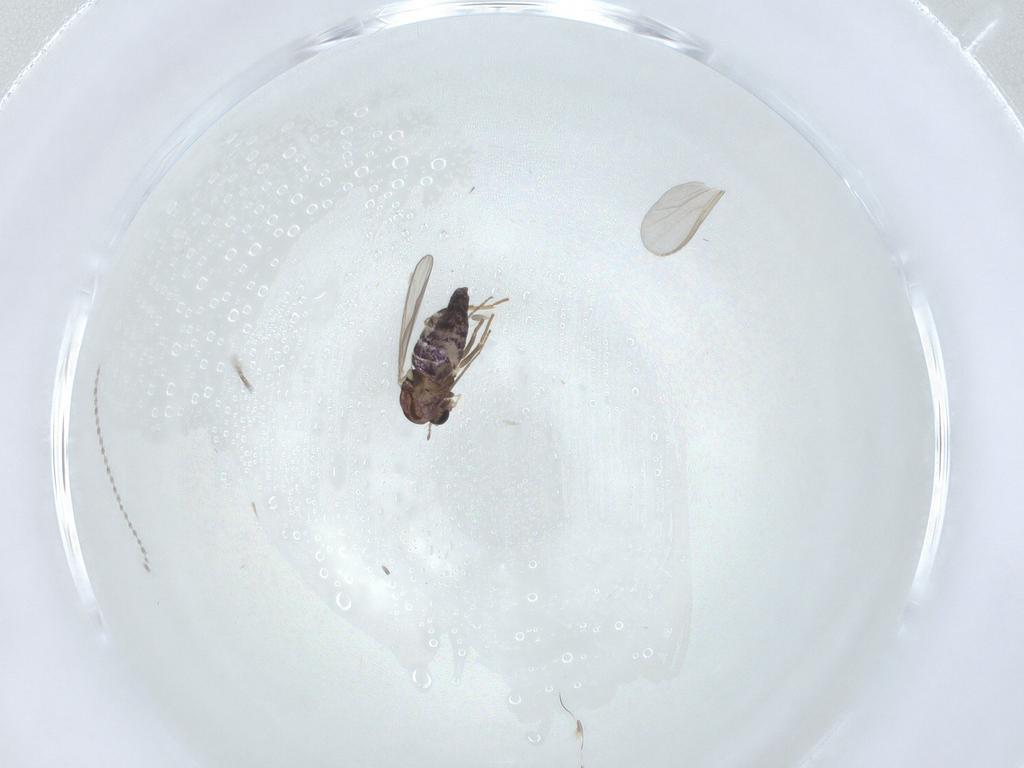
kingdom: Animalia
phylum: Arthropoda
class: Insecta
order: Diptera
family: Chironomidae
